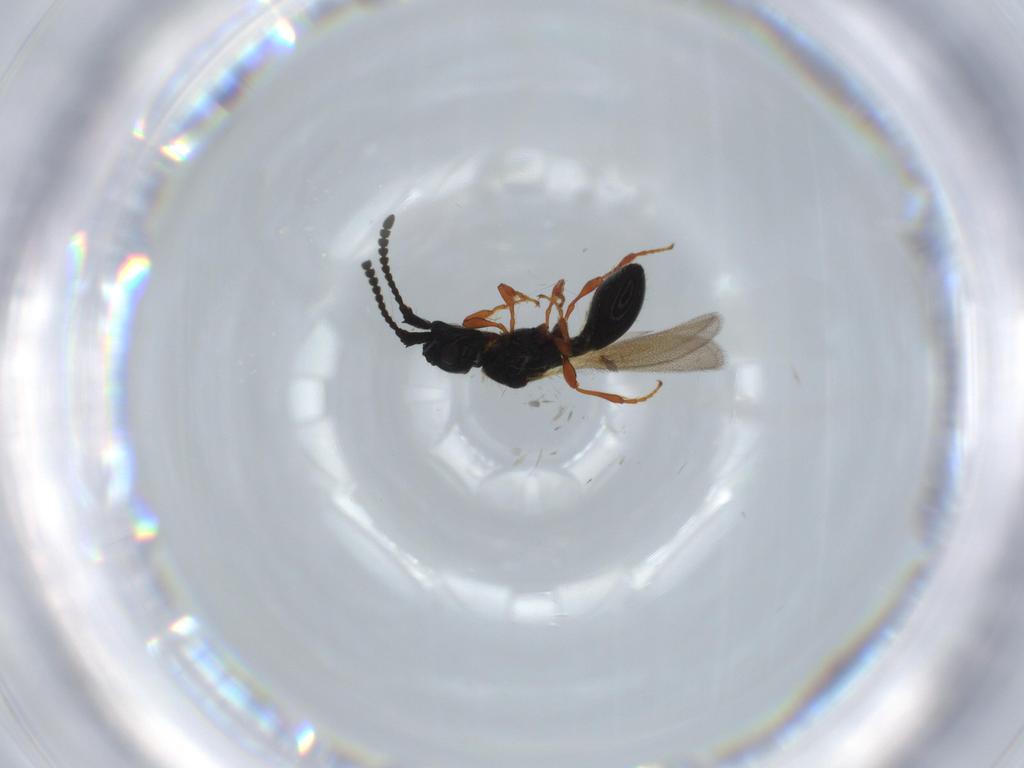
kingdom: Animalia
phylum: Arthropoda
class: Insecta
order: Hymenoptera
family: Diapriidae
